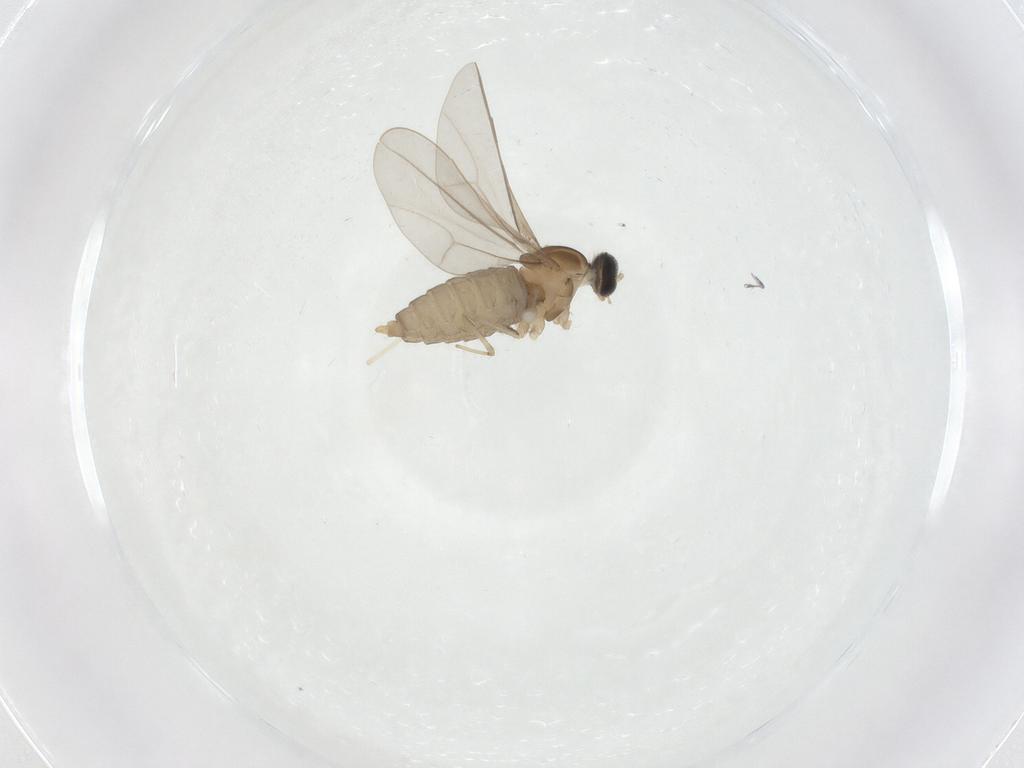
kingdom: Animalia
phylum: Arthropoda
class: Insecta
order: Diptera
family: Cecidomyiidae
